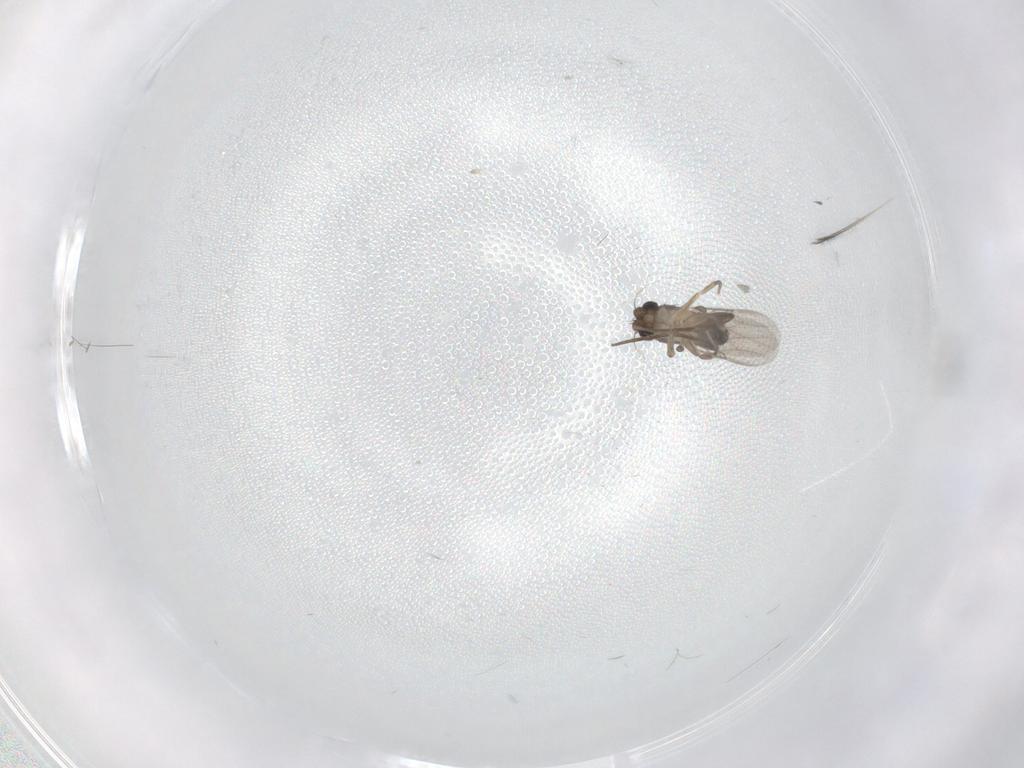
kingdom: Animalia
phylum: Arthropoda
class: Insecta
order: Diptera
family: Phoridae
